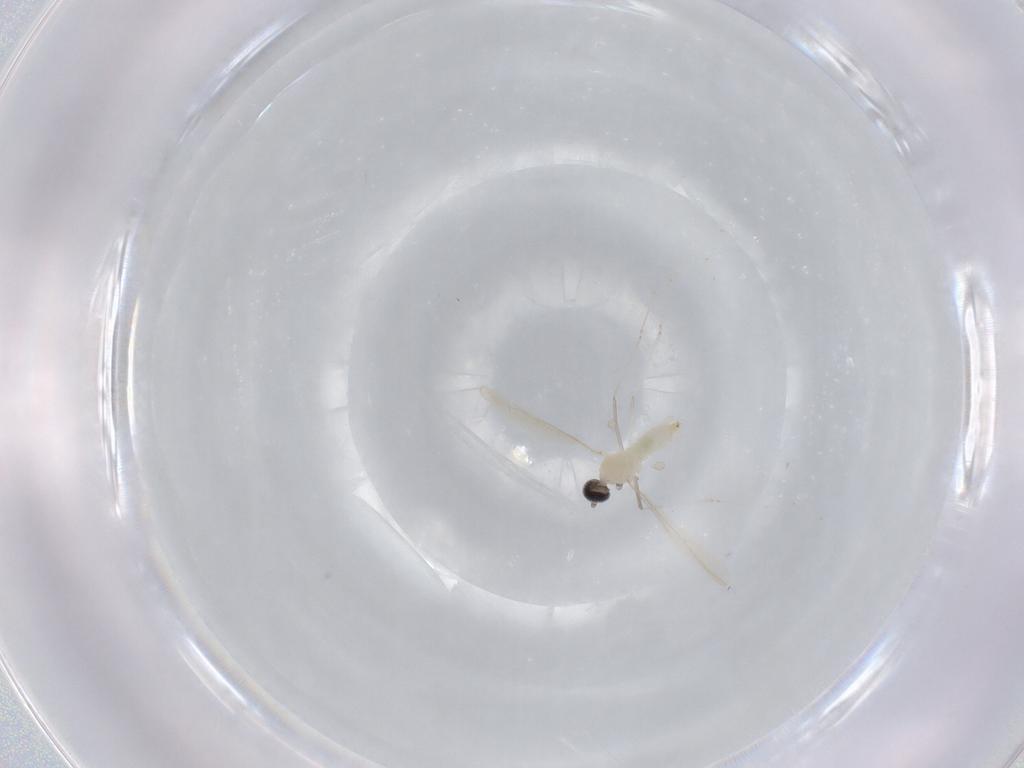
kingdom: Animalia
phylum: Arthropoda
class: Insecta
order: Diptera
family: Cecidomyiidae
